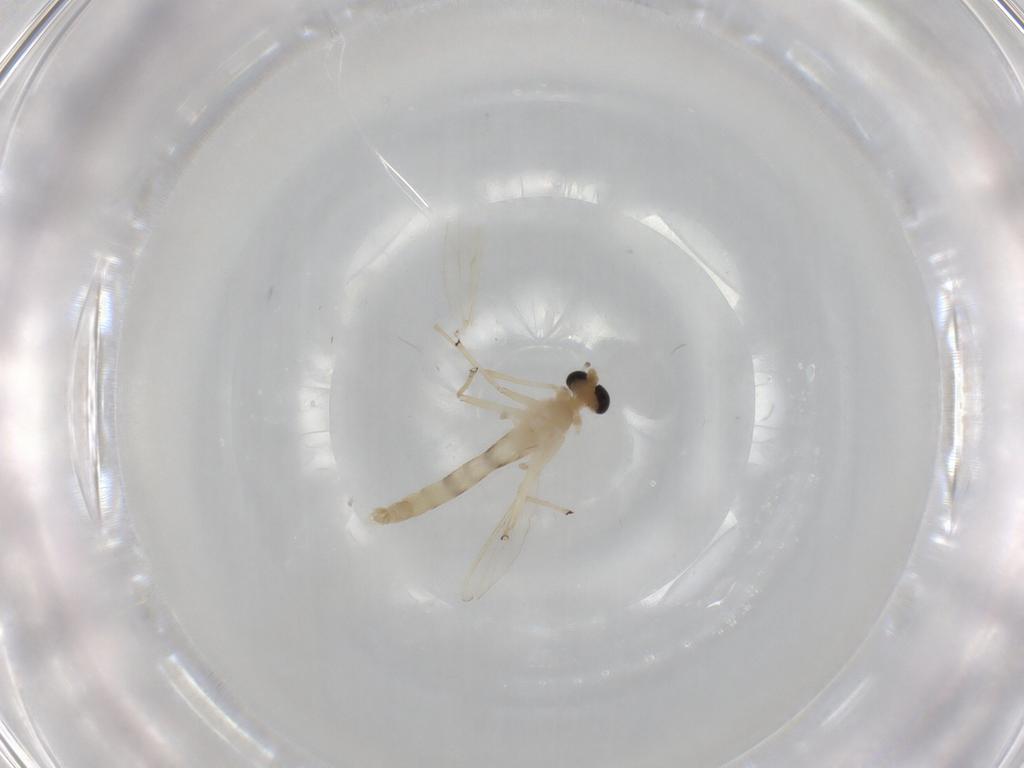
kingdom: Animalia
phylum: Arthropoda
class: Insecta
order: Diptera
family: Chironomidae
